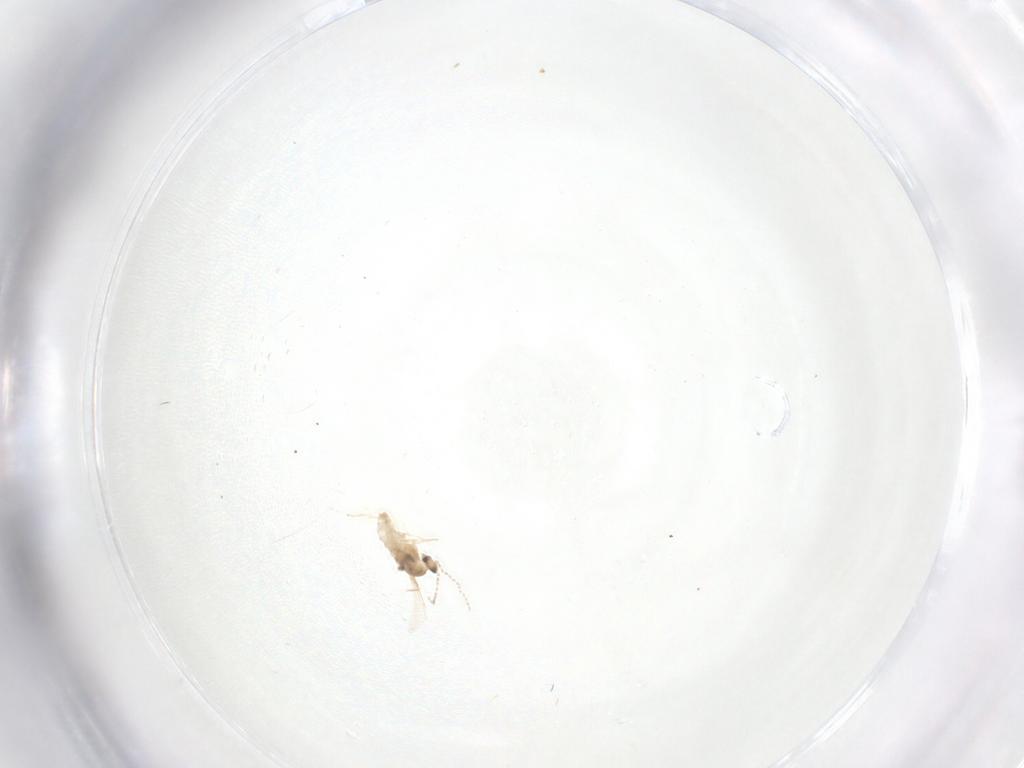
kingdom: Animalia
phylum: Arthropoda
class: Insecta
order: Diptera
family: Cecidomyiidae
